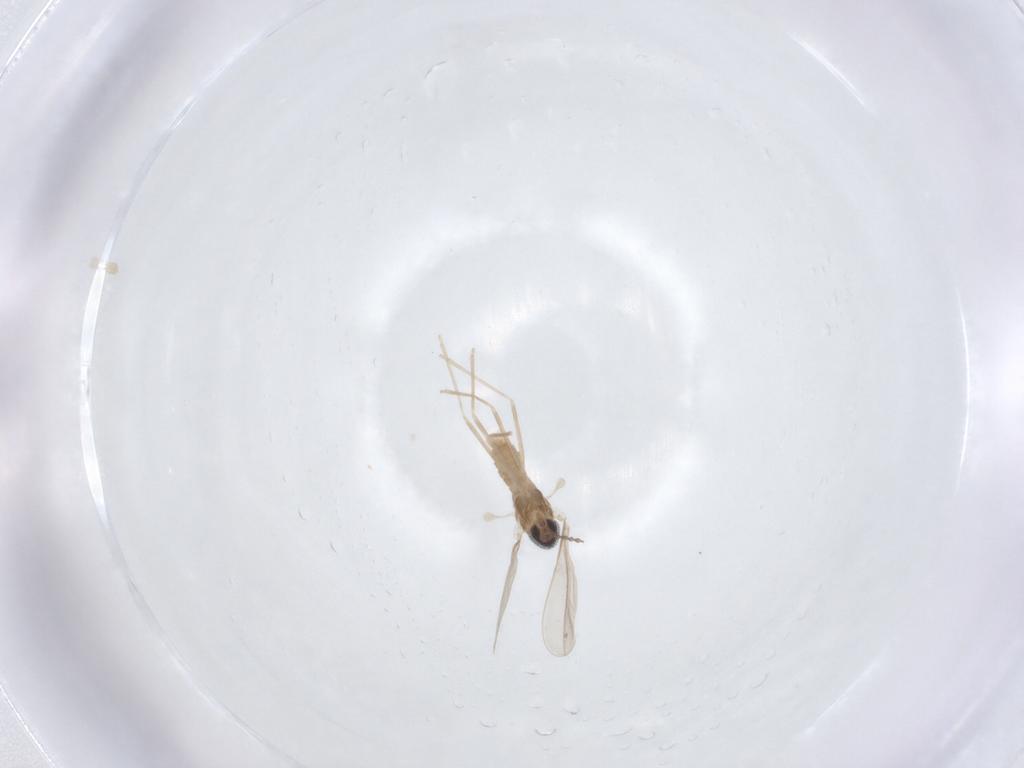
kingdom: Animalia
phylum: Arthropoda
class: Insecta
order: Diptera
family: Cecidomyiidae
